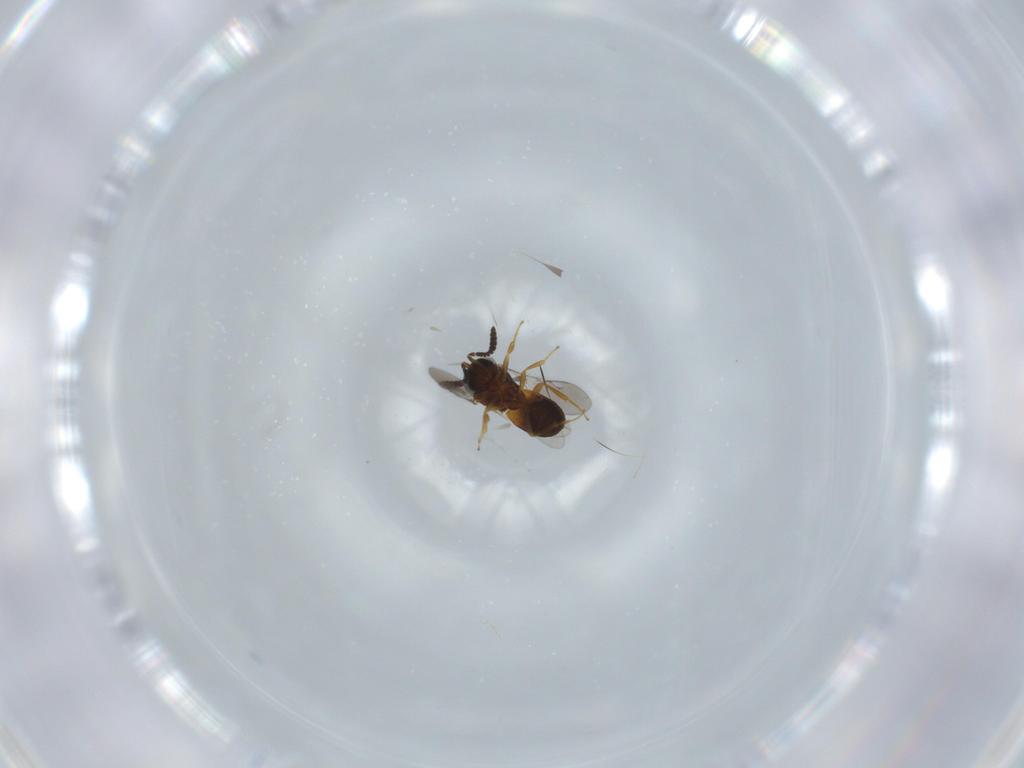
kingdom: Animalia
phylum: Arthropoda
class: Insecta
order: Hymenoptera
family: Scelionidae
